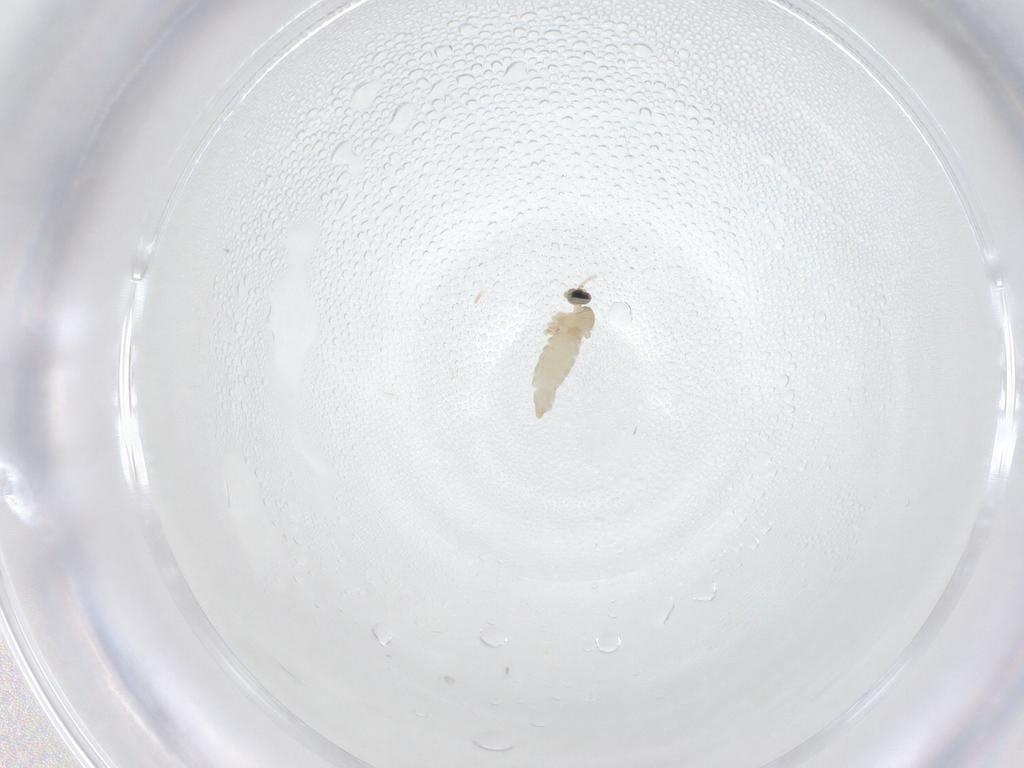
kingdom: Animalia
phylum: Arthropoda
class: Insecta
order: Diptera
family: Cecidomyiidae
